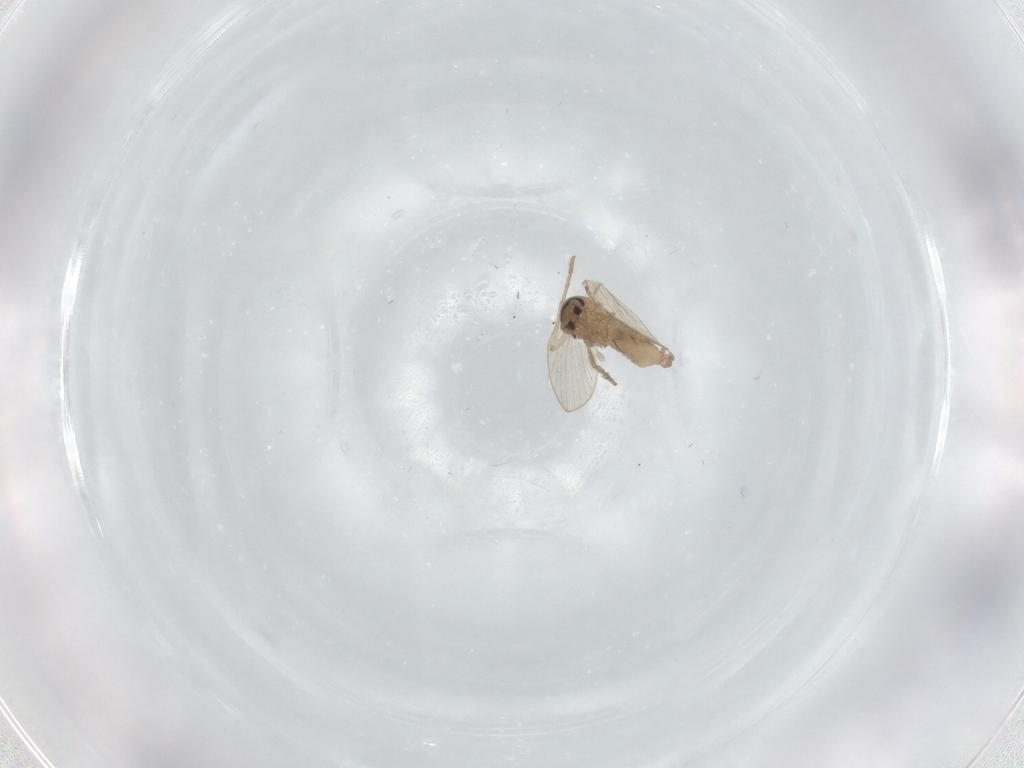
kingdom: Animalia
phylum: Arthropoda
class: Insecta
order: Diptera
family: Psychodidae
